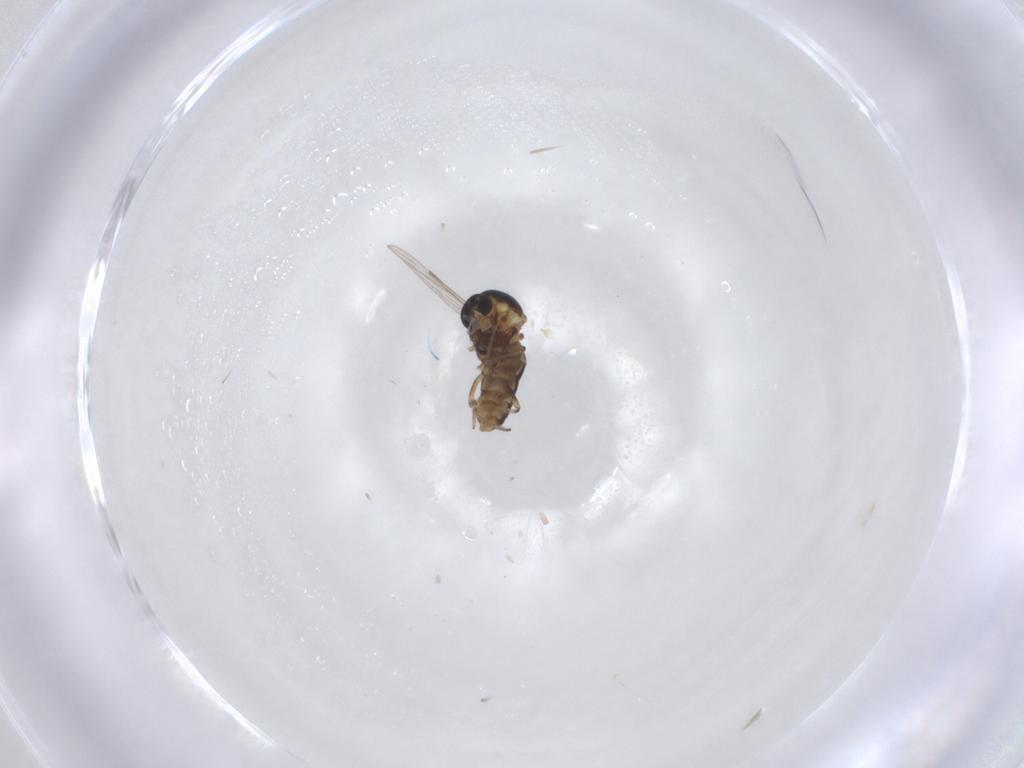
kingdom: Animalia
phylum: Arthropoda
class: Insecta
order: Diptera
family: Ceratopogonidae
